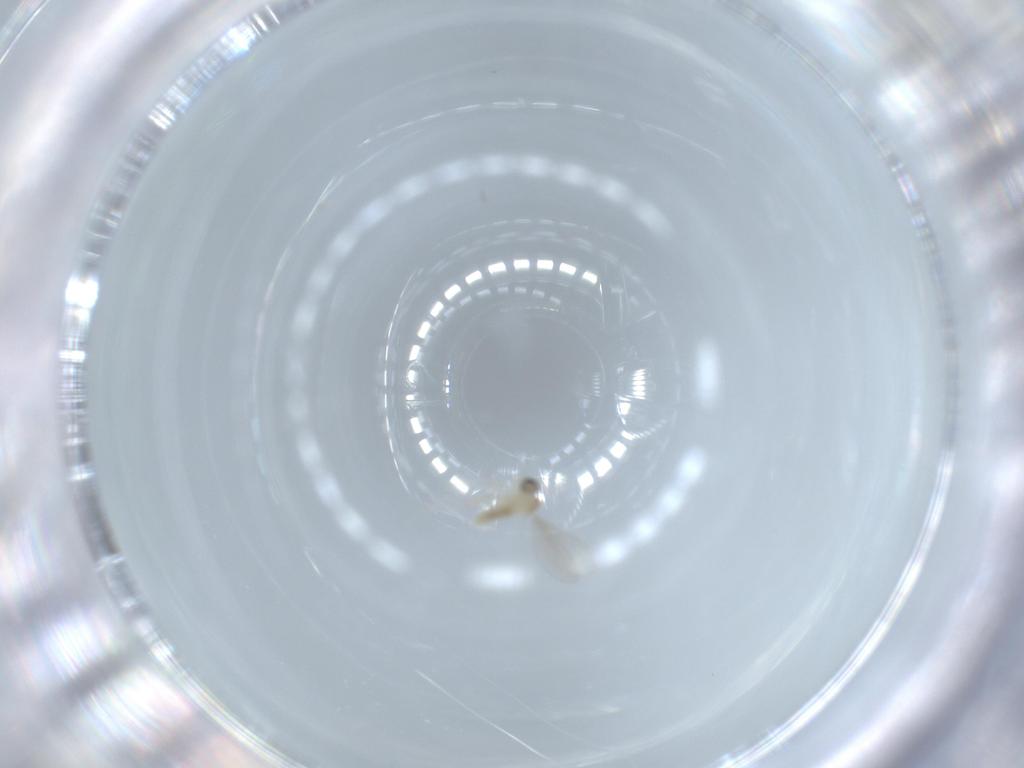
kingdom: Animalia
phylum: Arthropoda
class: Insecta
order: Diptera
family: Cecidomyiidae
